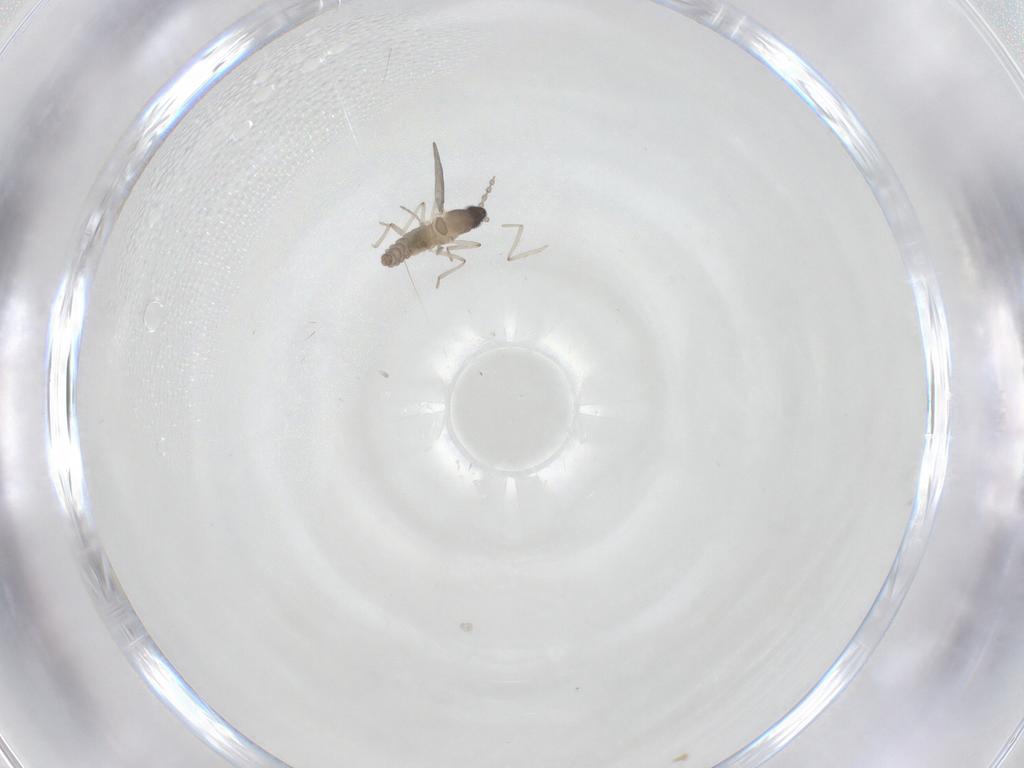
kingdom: Animalia
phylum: Arthropoda
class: Insecta
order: Diptera
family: Cecidomyiidae
